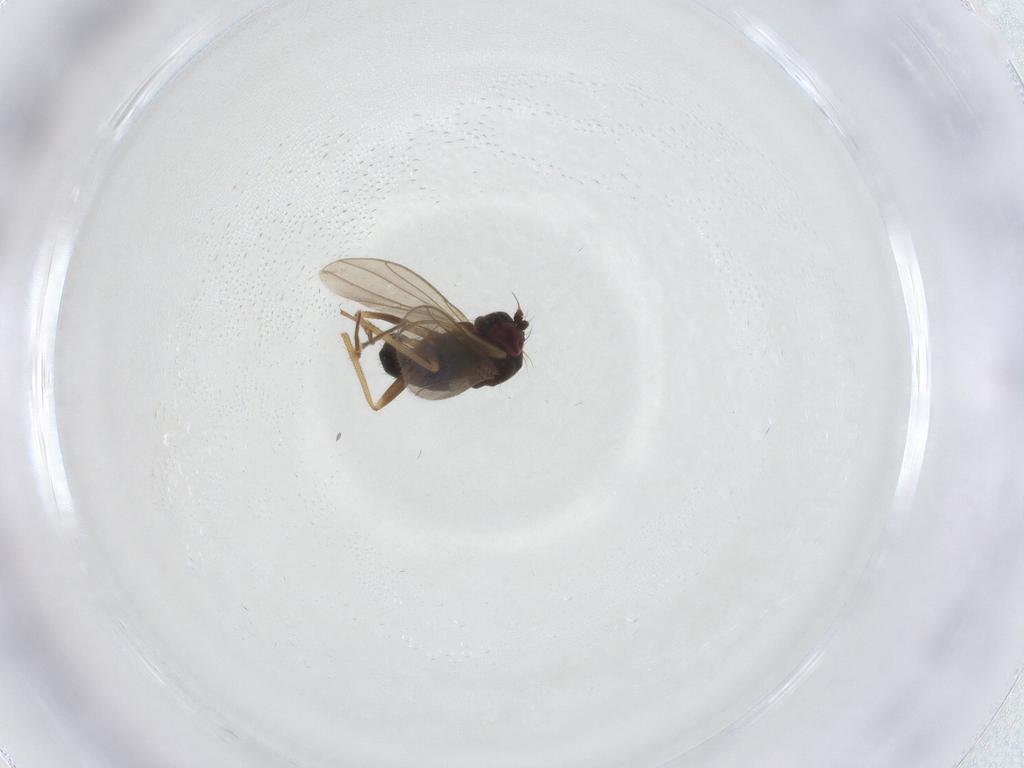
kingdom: Animalia
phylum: Arthropoda
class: Insecta
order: Diptera
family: Dolichopodidae
